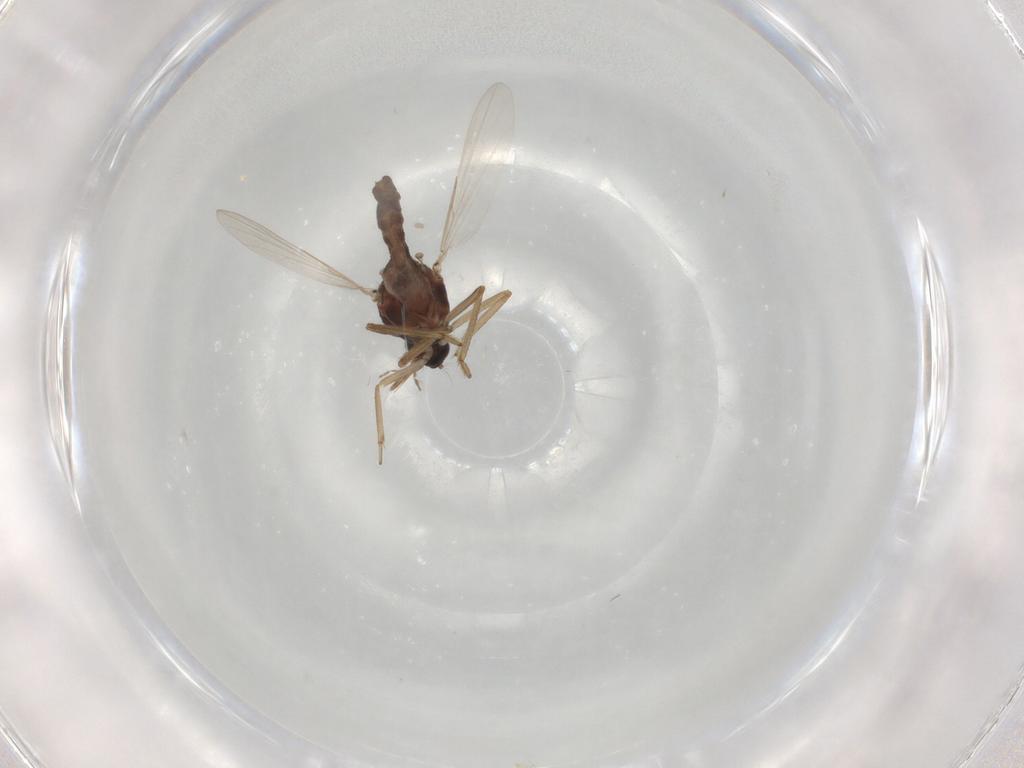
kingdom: Animalia
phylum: Arthropoda
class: Insecta
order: Diptera
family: Ceratopogonidae
